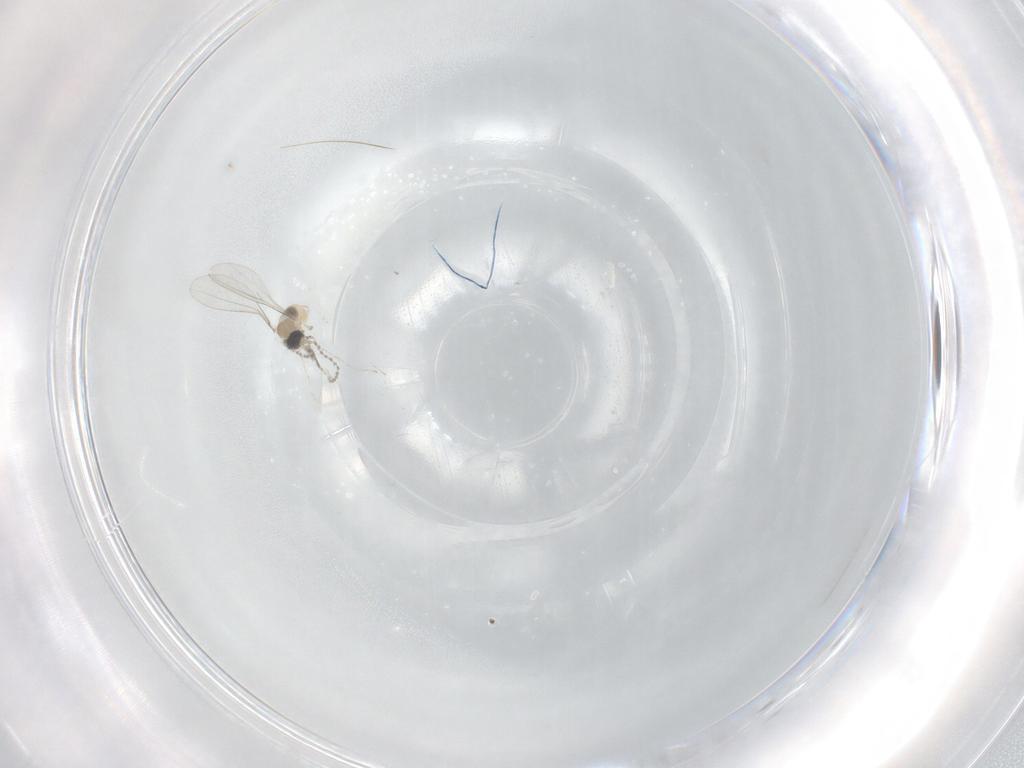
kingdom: Animalia
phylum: Arthropoda
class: Insecta
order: Diptera
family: Cecidomyiidae
